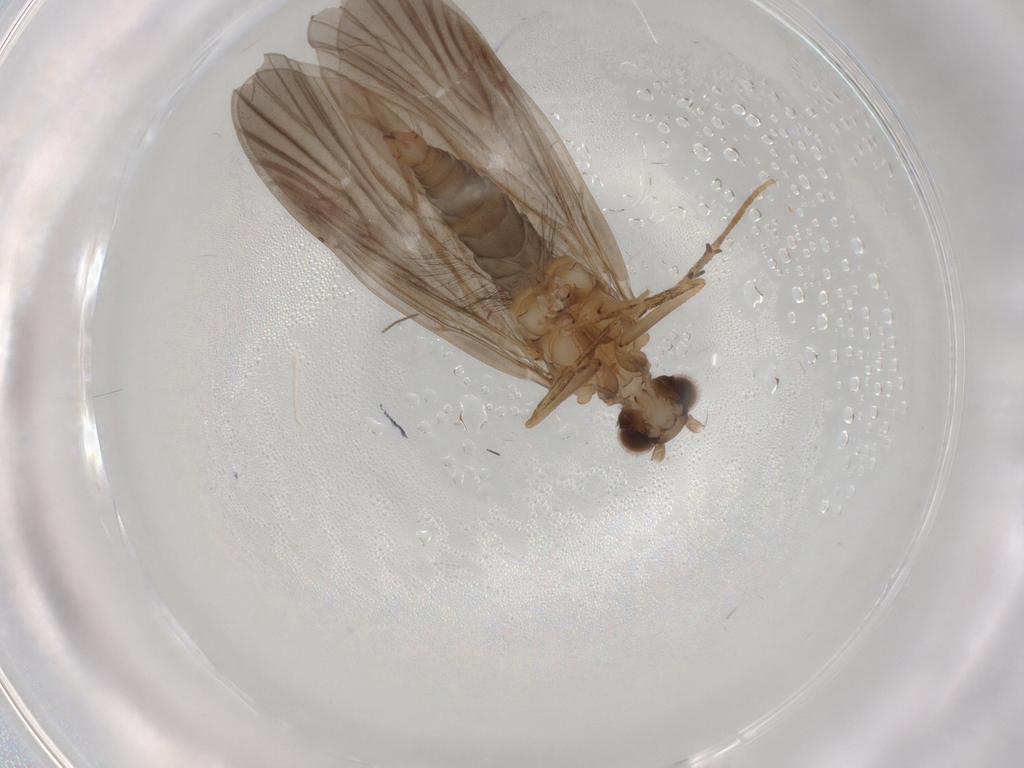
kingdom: Animalia
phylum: Arthropoda
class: Insecta
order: Trichoptera
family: Philopotamidae
